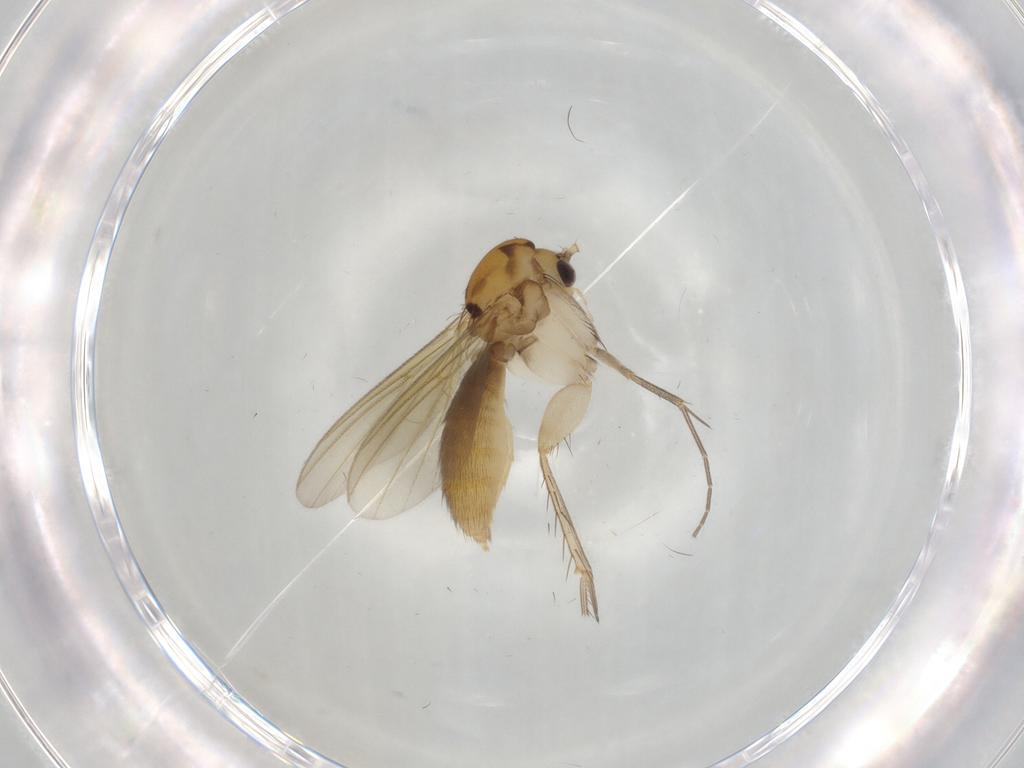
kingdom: Animalia
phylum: Arthropoda
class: Insecta
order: Diptera
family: Mycetophilidae
